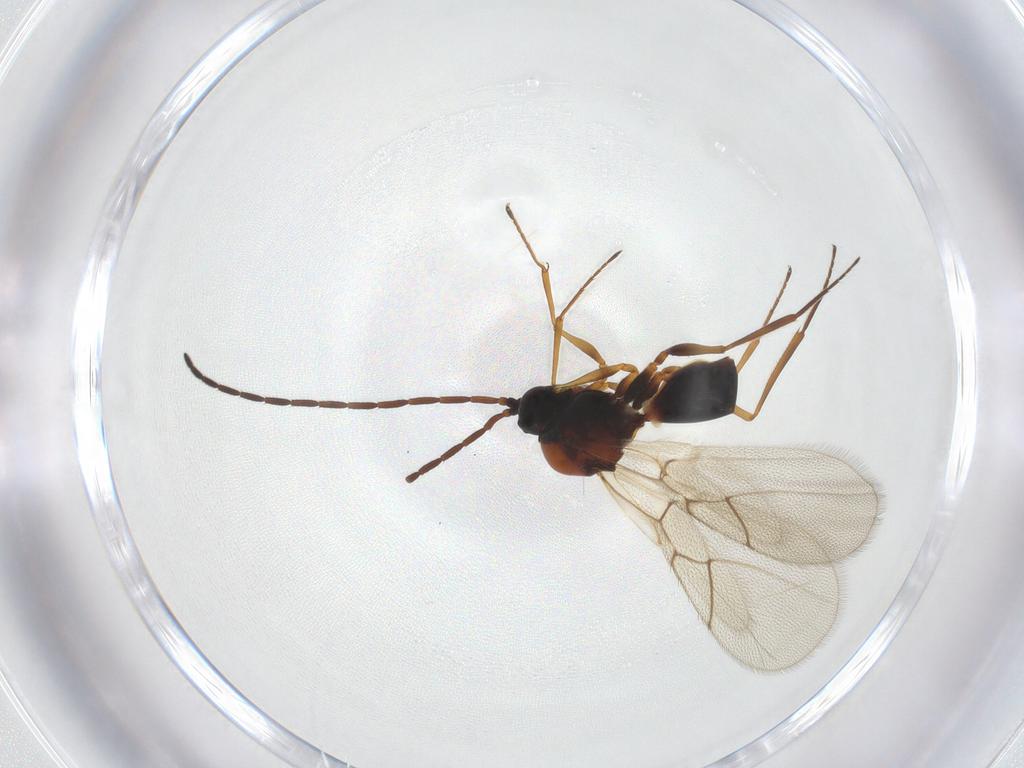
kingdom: Animalia
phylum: Arthropoda
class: Insecta
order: Hymenoptera
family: Figitidae
